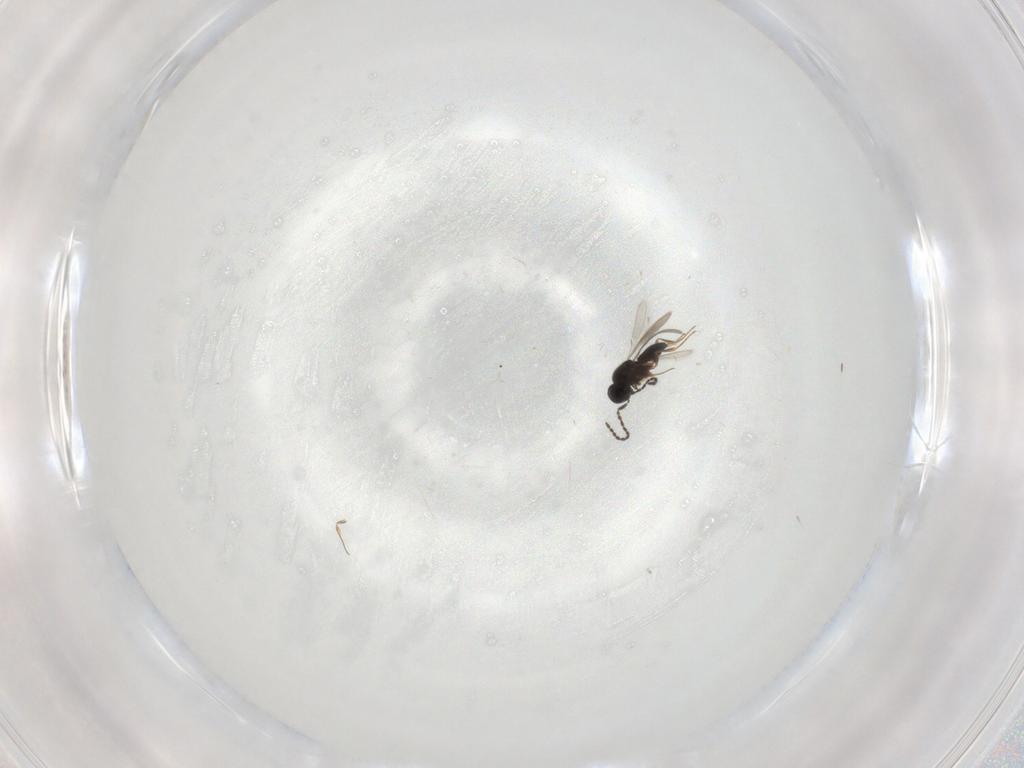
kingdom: Animalia
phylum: Arthropoda
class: Insecta
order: Hymenoptera
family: Scelionidae
